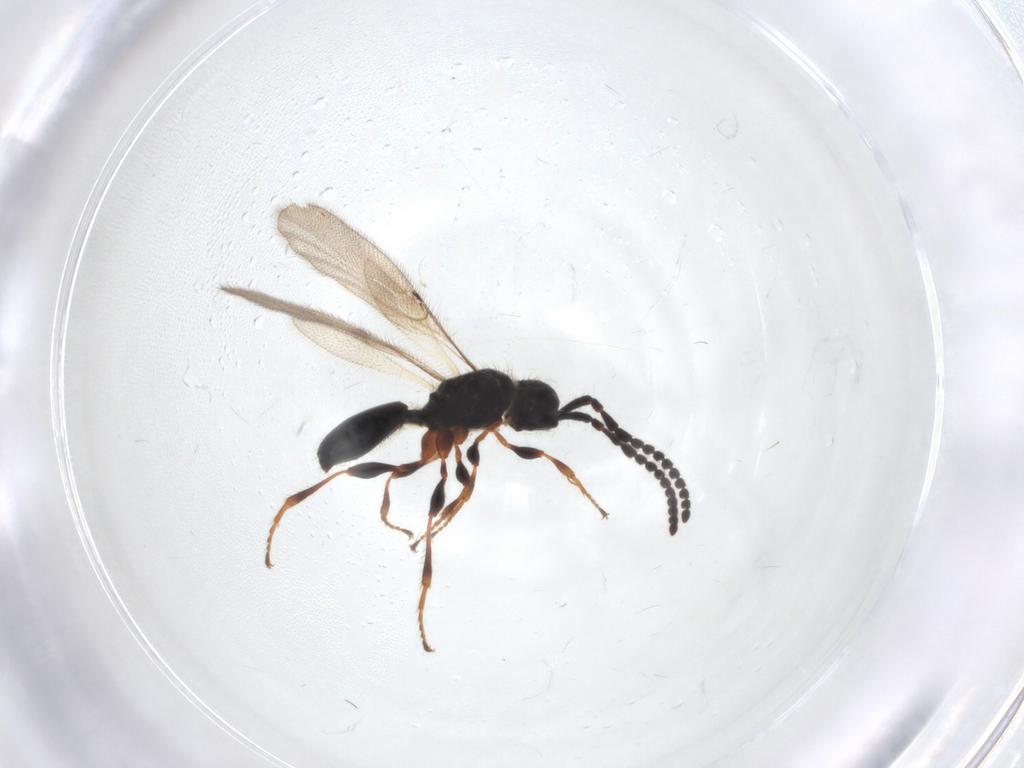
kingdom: Animalia
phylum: Arthropoda
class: Insecta
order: Hymenoptera
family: Diapriidae
